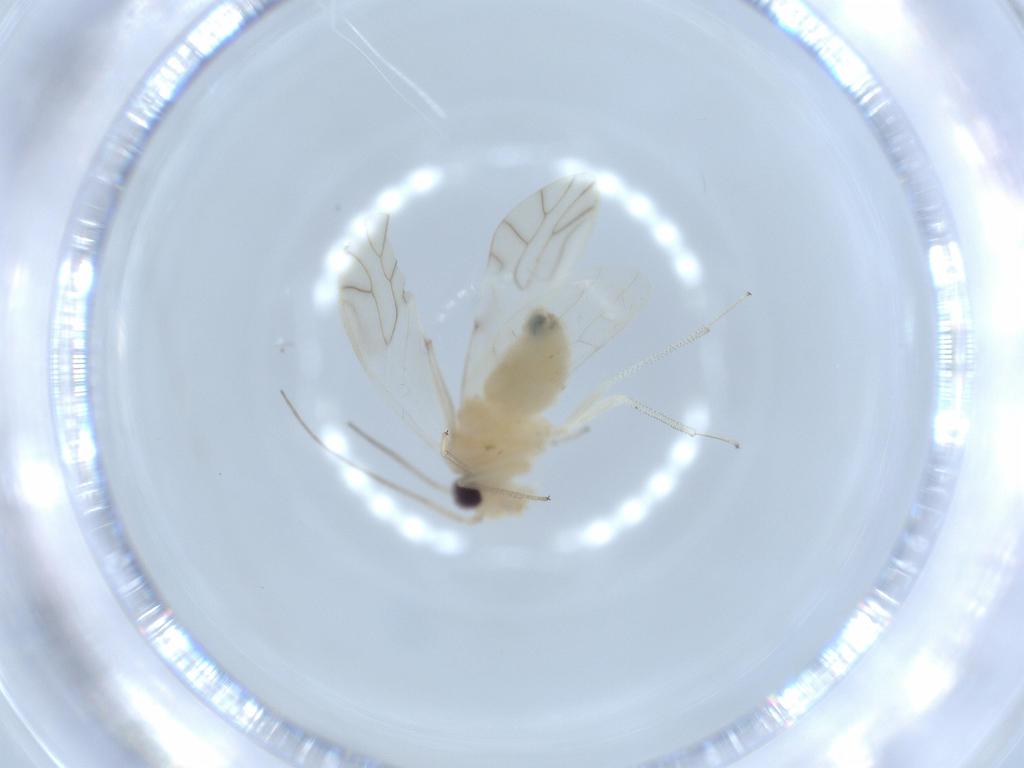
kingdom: Animalia
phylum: Arthropoda
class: Insecta
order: Psocodea
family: Caeciliusidae
